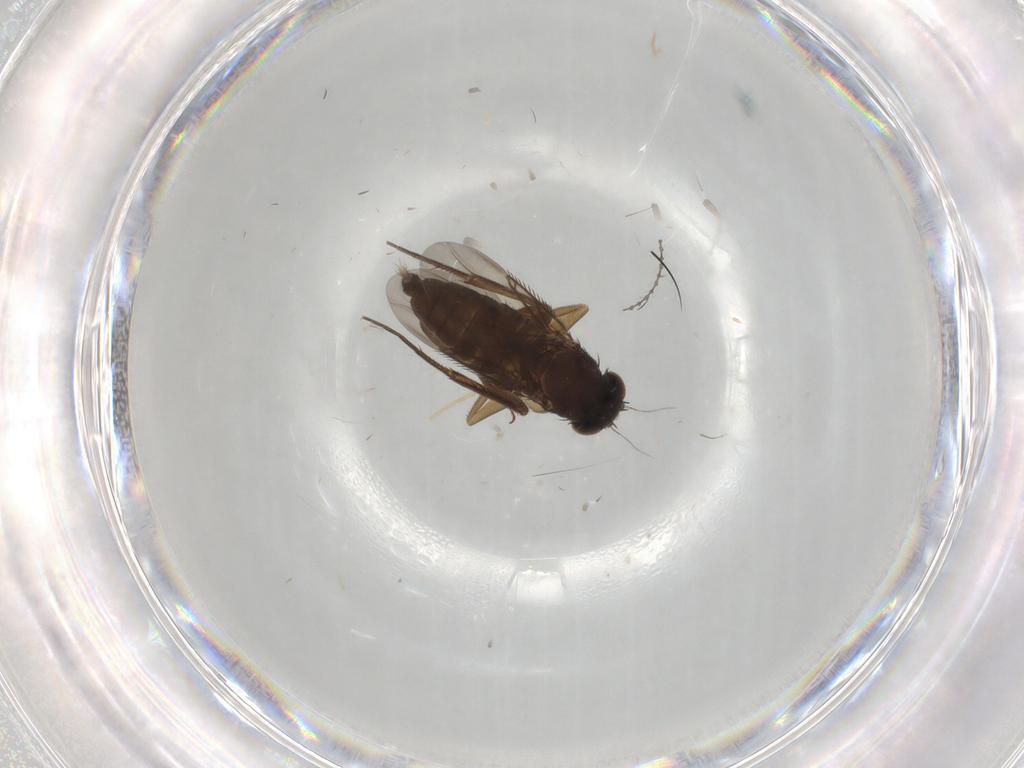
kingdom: Animalia
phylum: Arthropoda
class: Insecta
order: Diptera
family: Phoridae
